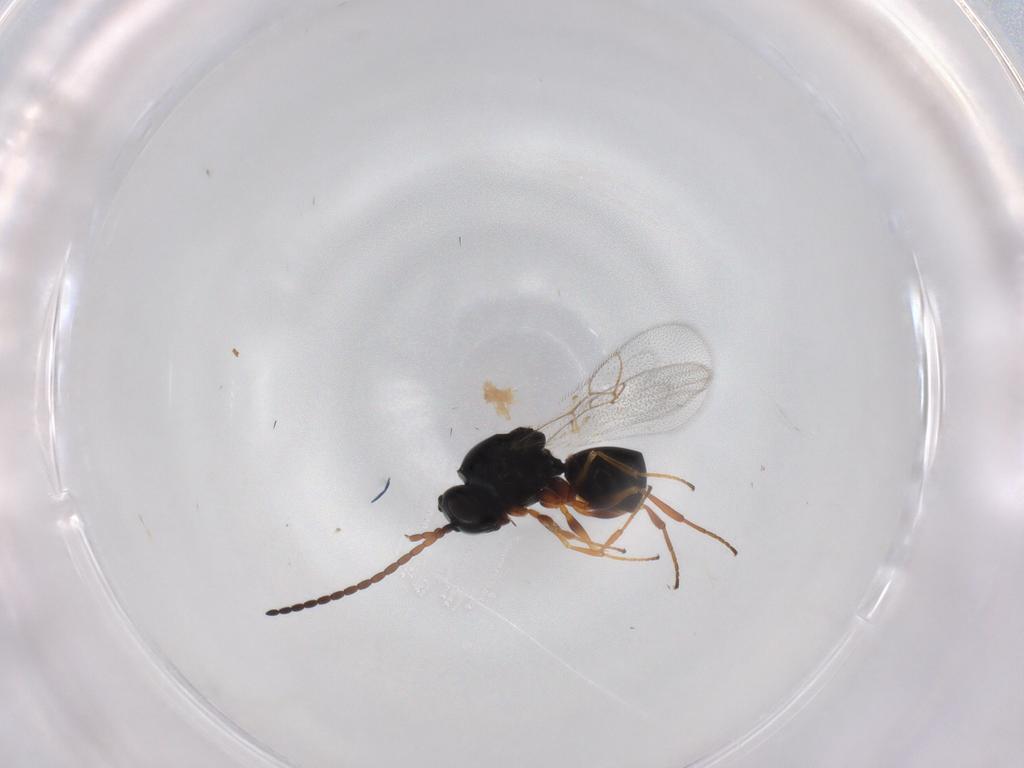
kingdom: Animalia
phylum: Arthropoda
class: Insecta
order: Hymenoptera
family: Figitidae
